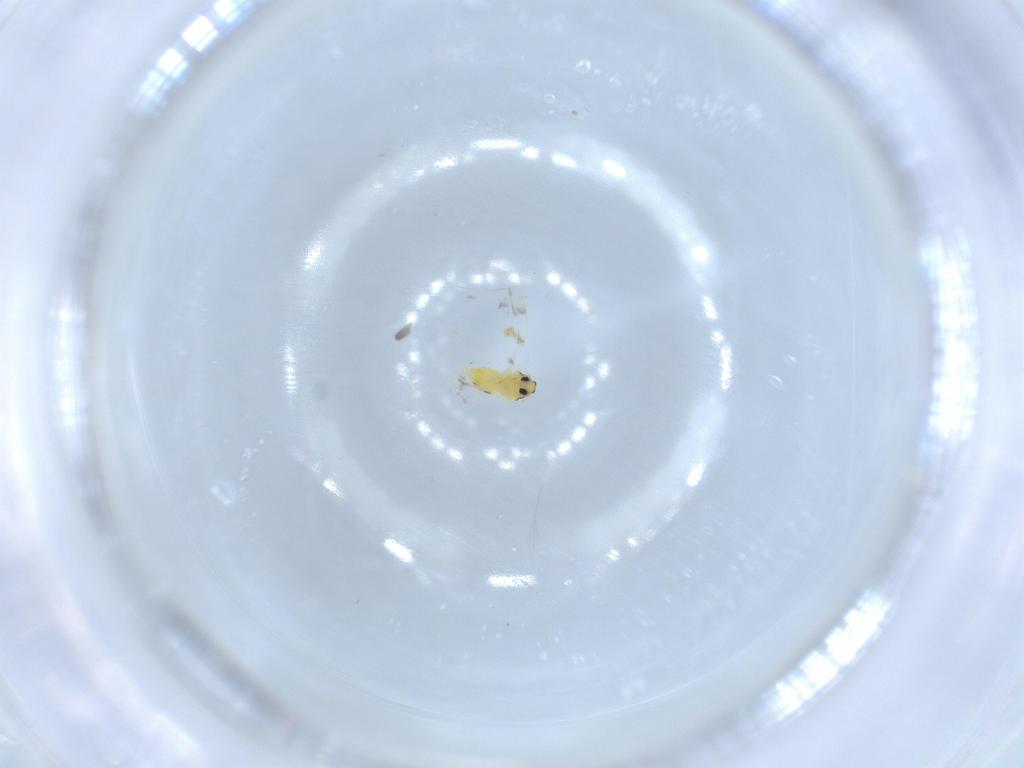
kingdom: Animalia
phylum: Arthropoda
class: Insecta
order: Hemiptera
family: Aleyrodidae
